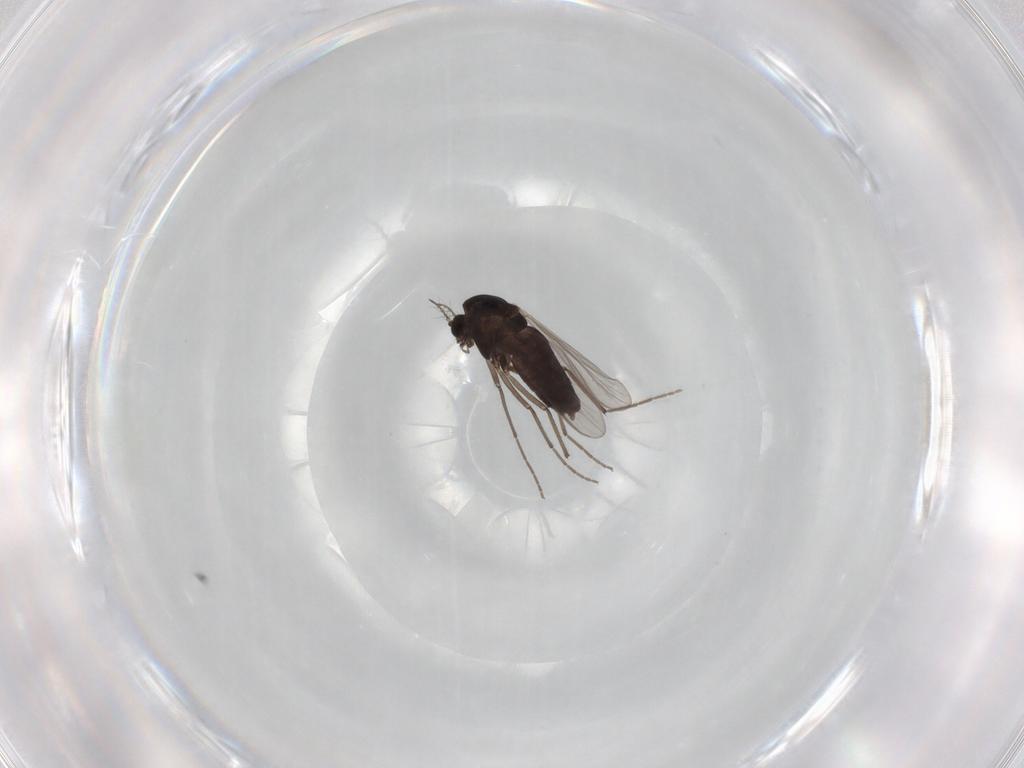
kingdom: Animalia
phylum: Arthropoda
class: Insecta
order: Diptera
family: Chironomidae
